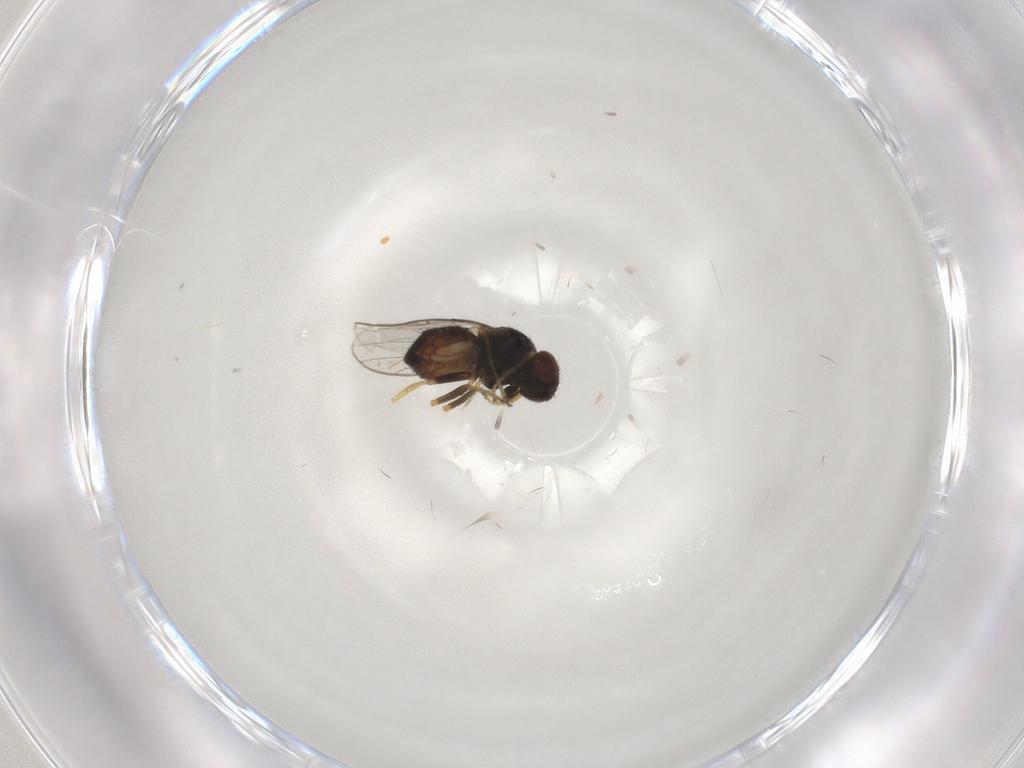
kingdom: Animalia
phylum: Arthropoda
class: Insecta
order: Diptera
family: Chloropidae
